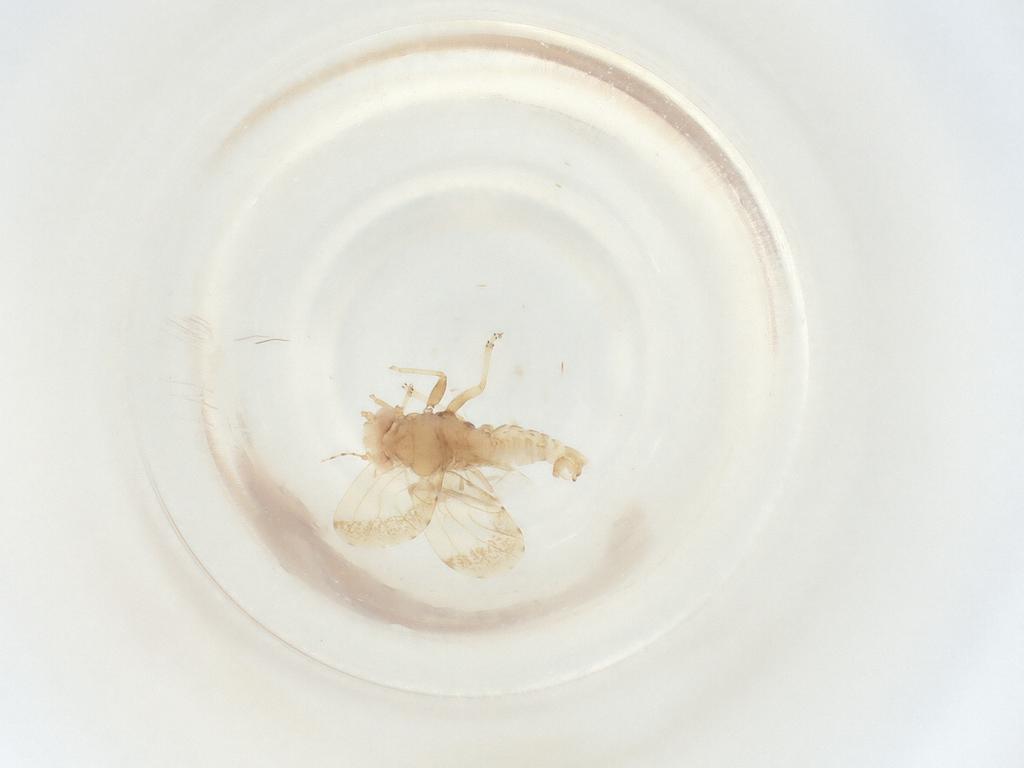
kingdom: Animalia
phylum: Arthropoda
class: Insecta
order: Hemiptera
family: Psyllidae
